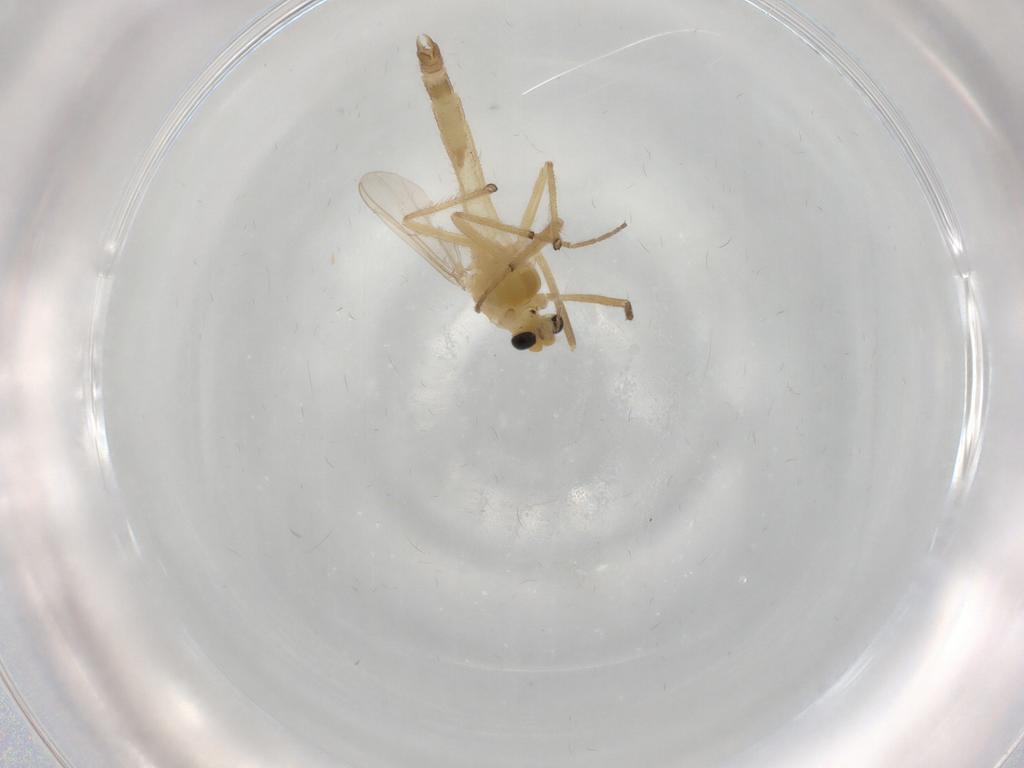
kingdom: Animalia
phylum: Arthropoda
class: Insecta
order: Diptera
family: Chironomidae
